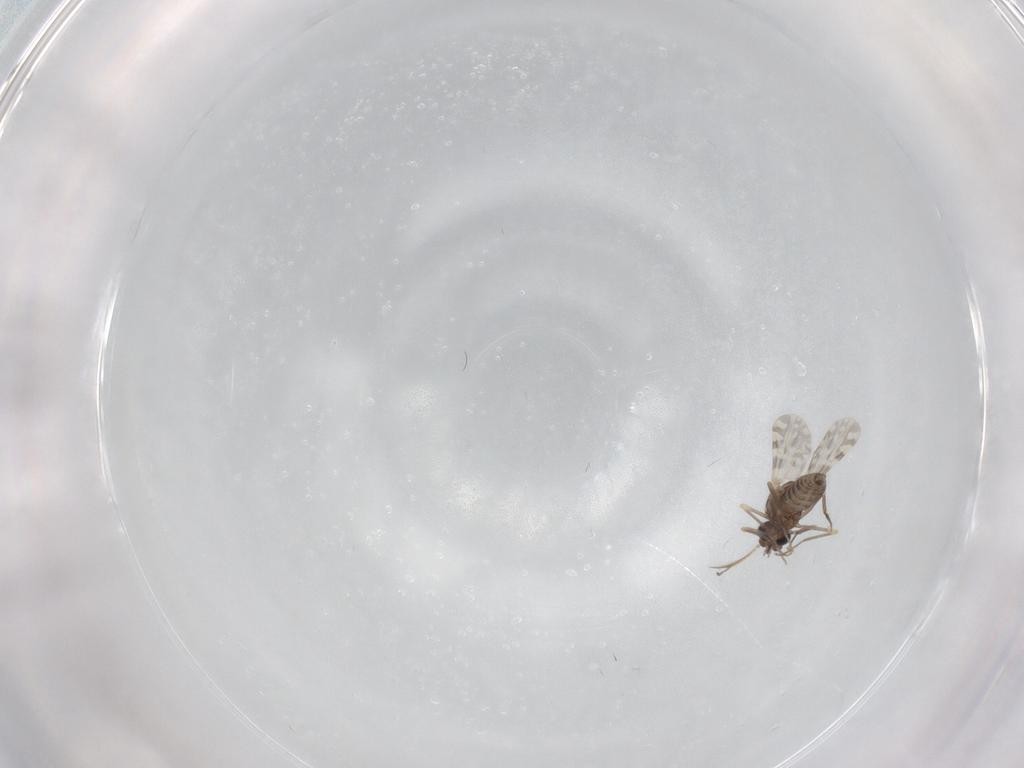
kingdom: Animalia
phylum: Arthropoda
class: Insecta
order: Diptera
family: Ceratopogonidae
